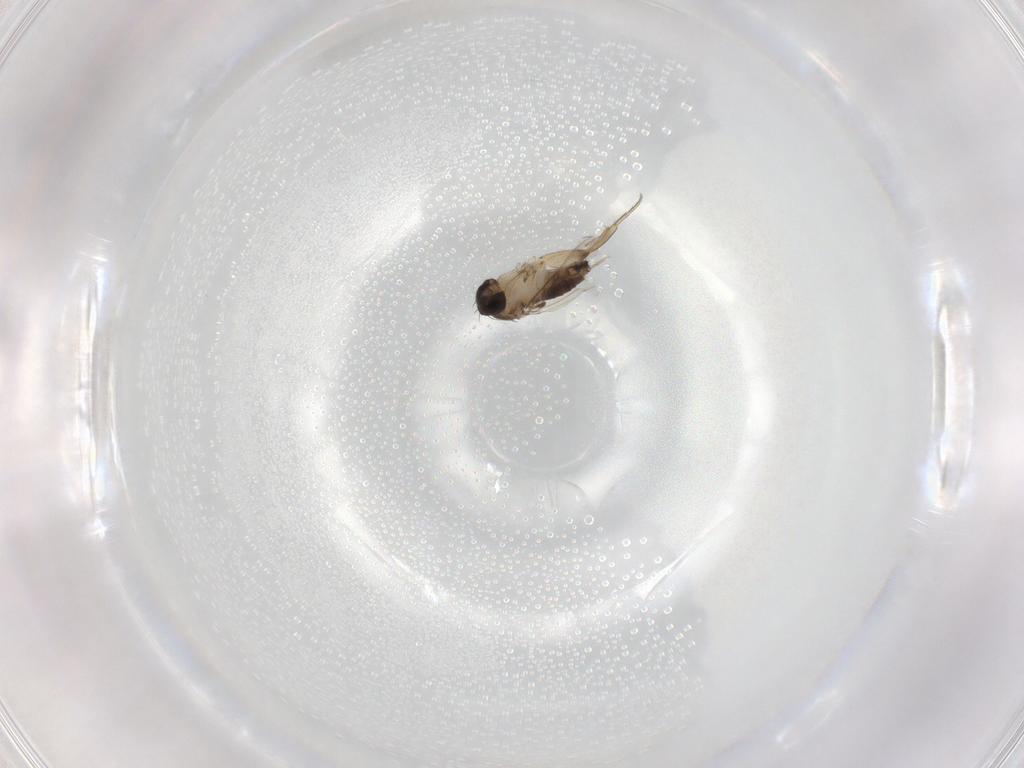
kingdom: Animalia
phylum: Arthropoda
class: Insecta
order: Diptera
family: Phoridae
